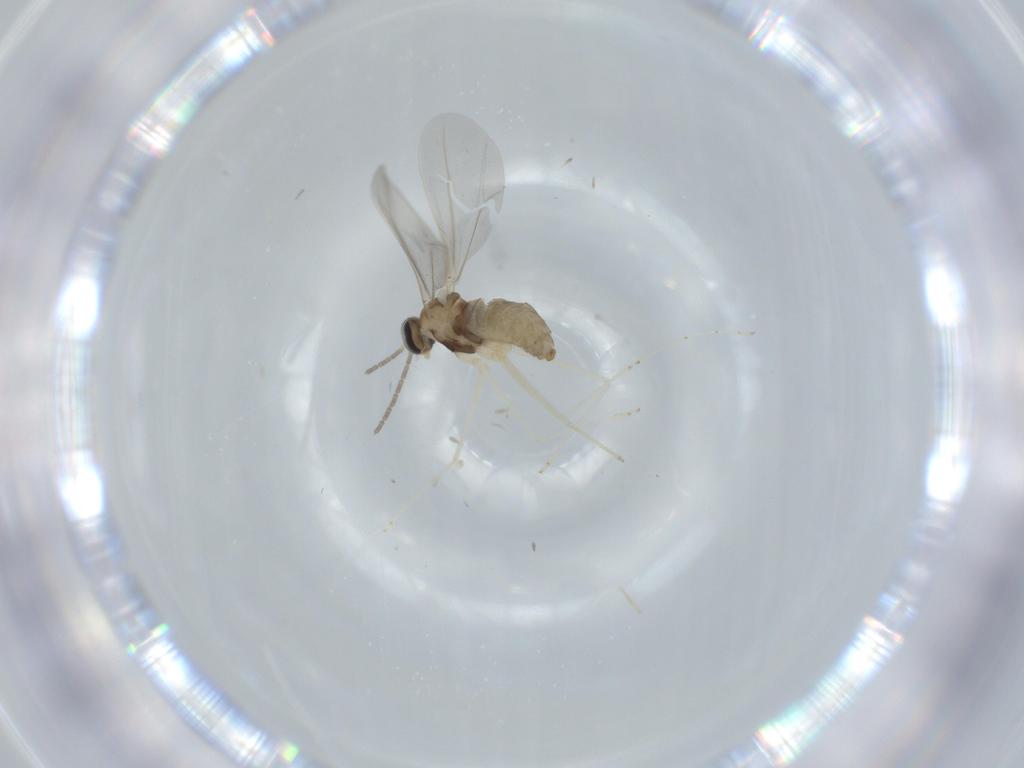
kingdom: Animalia
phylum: Arthropoda
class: Insecta
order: Diptera
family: Cecidomyiidae
